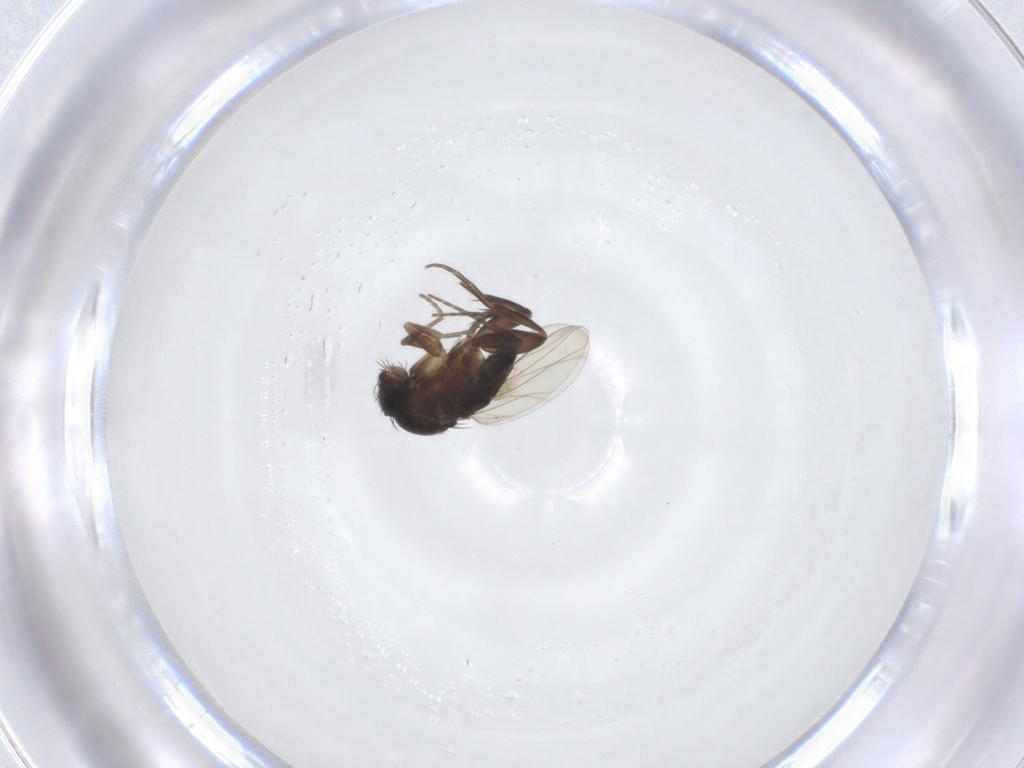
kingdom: Animalia
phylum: Arthropoda
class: Insecta
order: Diptera
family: Phoridae
